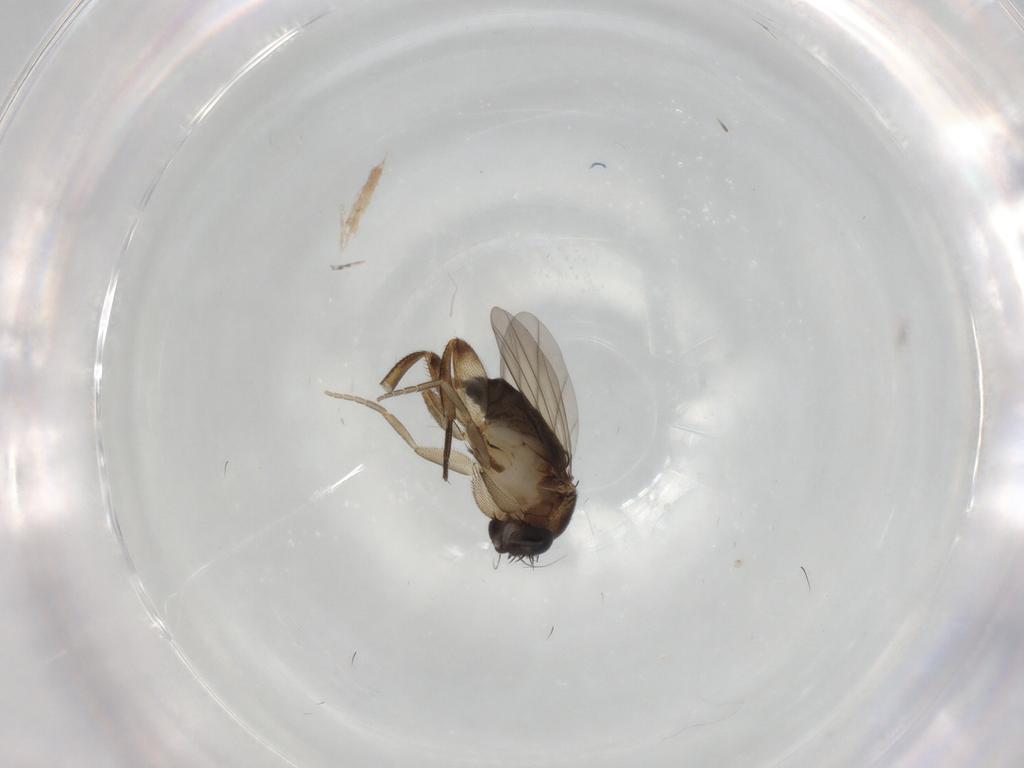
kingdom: Animalia
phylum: Arthropoda
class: Insecta
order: Diptera
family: Phoridae
